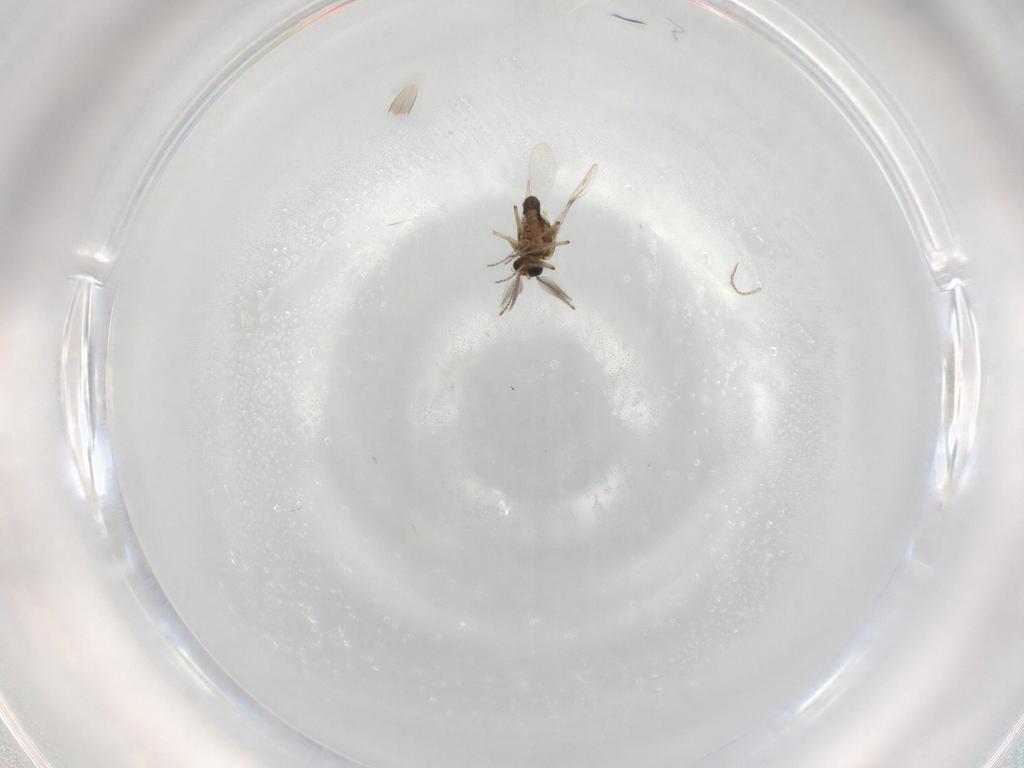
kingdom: Animalia
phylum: Arthropoda
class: Insecta
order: Diptera
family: Ceratopogonidae
